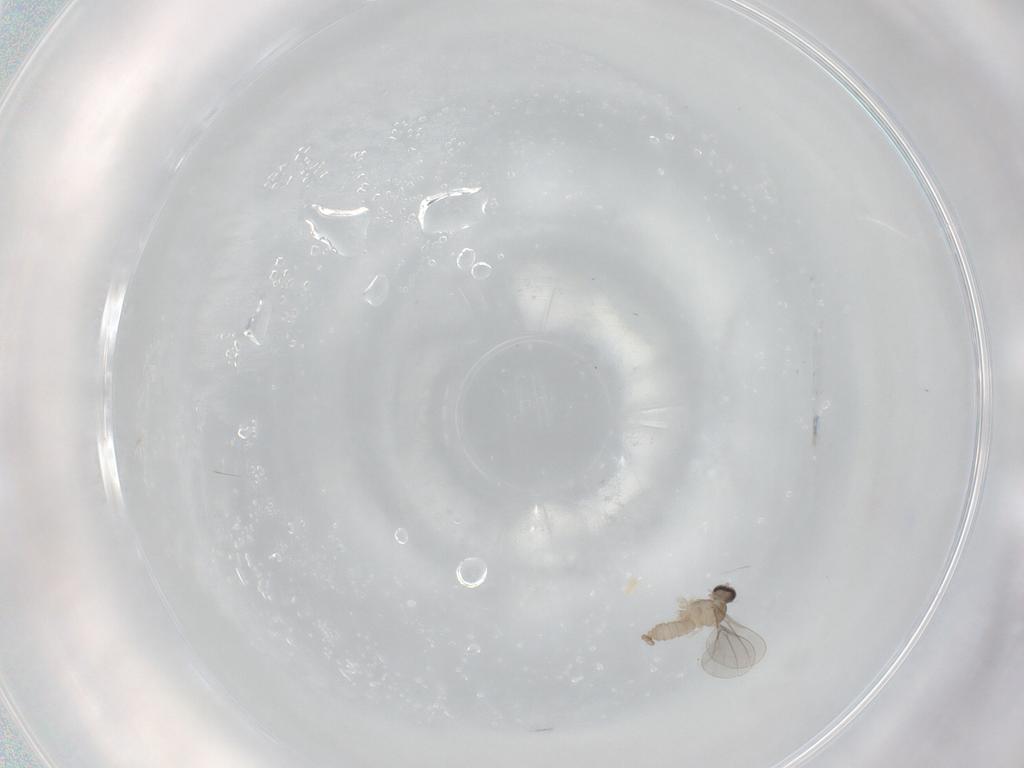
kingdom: Animalia
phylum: Arthropoda
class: Insecta
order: Diptera
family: Cecidomyiidae
